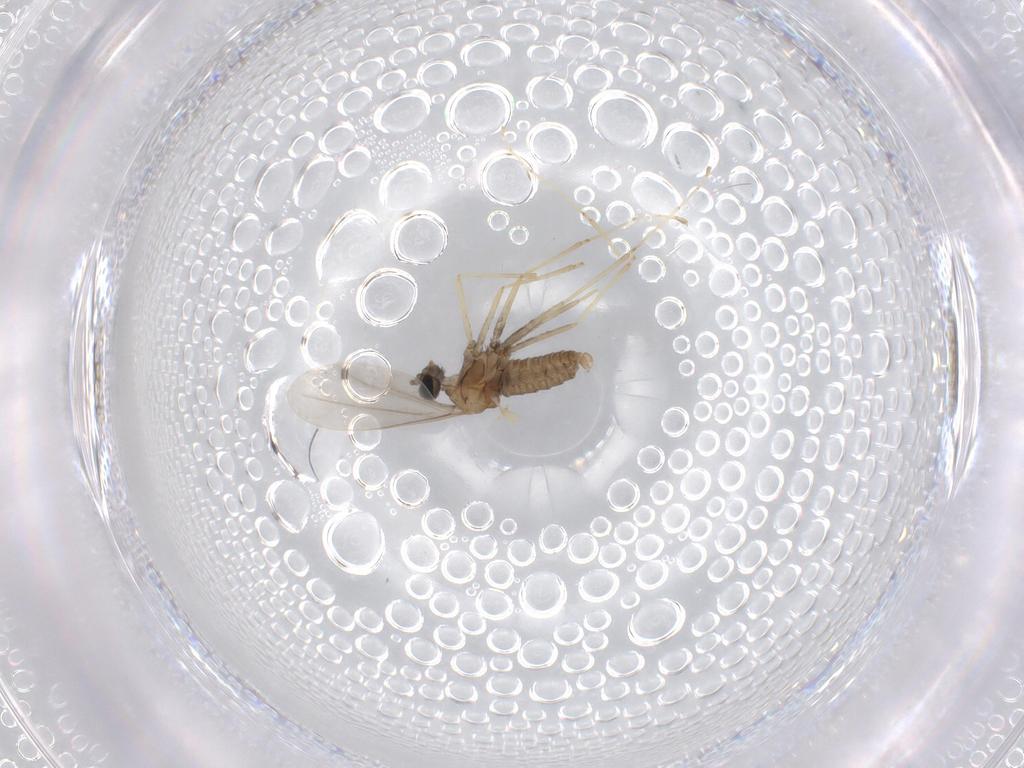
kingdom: Animalia
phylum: Arthropoda
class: Insecta
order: Diptera
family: Cecidomyiidae
